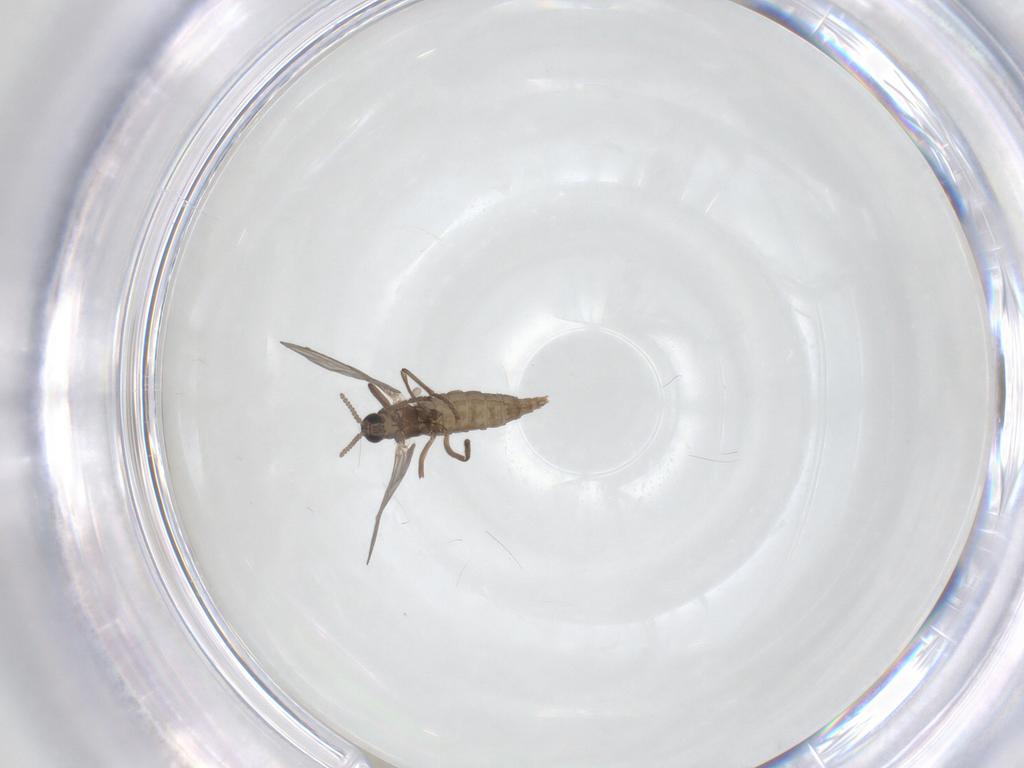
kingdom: Animalia
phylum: Arthropoda
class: Insecta
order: Diptera
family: Cecidomyiidae
